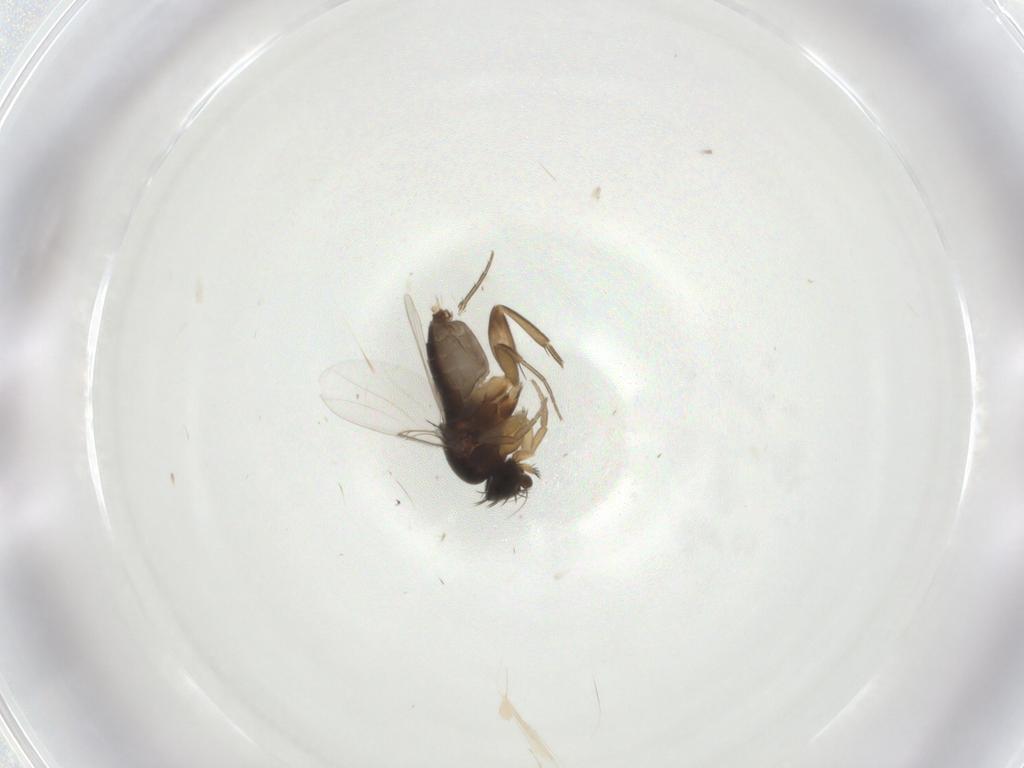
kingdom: Animalia
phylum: Arthropoda
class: Insecta
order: Diptera
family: Phoridae
